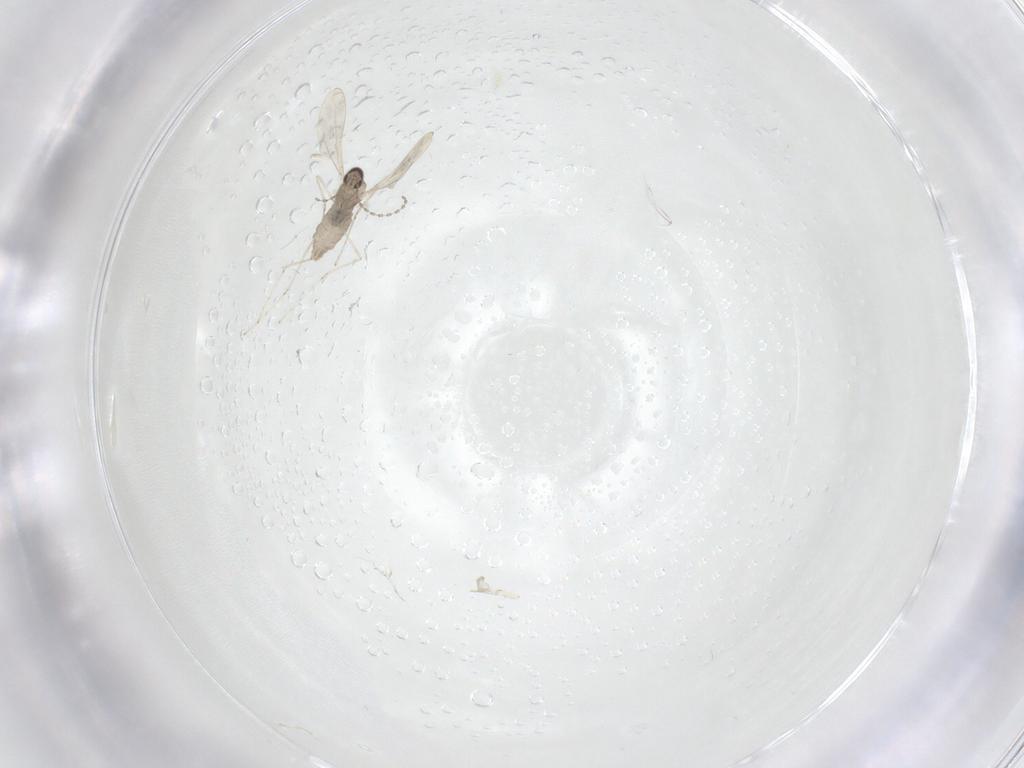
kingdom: Animalia
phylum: Arthropoda
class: Insecta
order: Diptera
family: Cecidomyiidae
